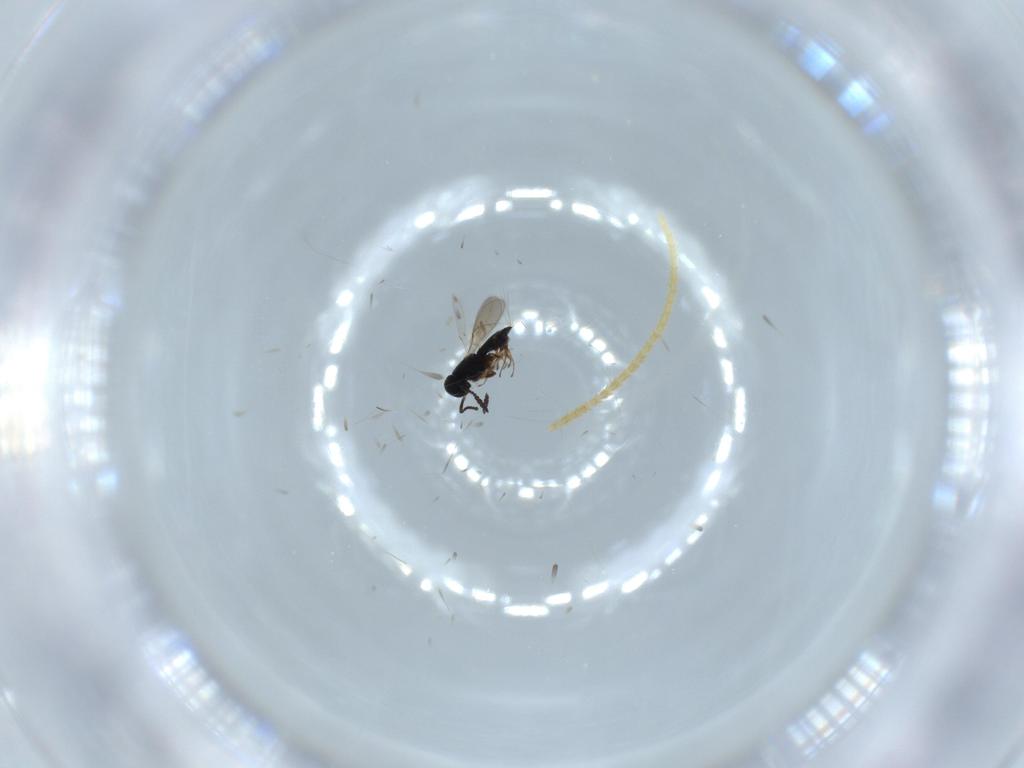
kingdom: Animalia
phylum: Arthropoda
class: Insecta
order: Hymenoptera
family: Scelionidae
